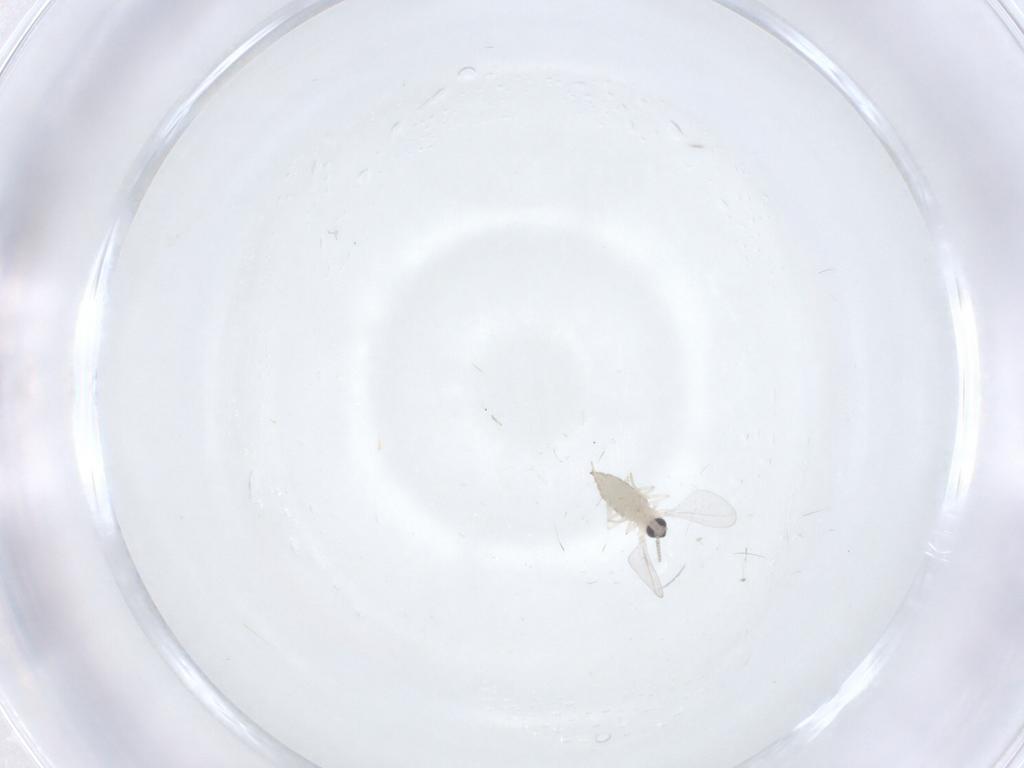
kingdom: Animalia
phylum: Arthropoda
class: Insecta
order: Diptera
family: Cecidomyiidae
